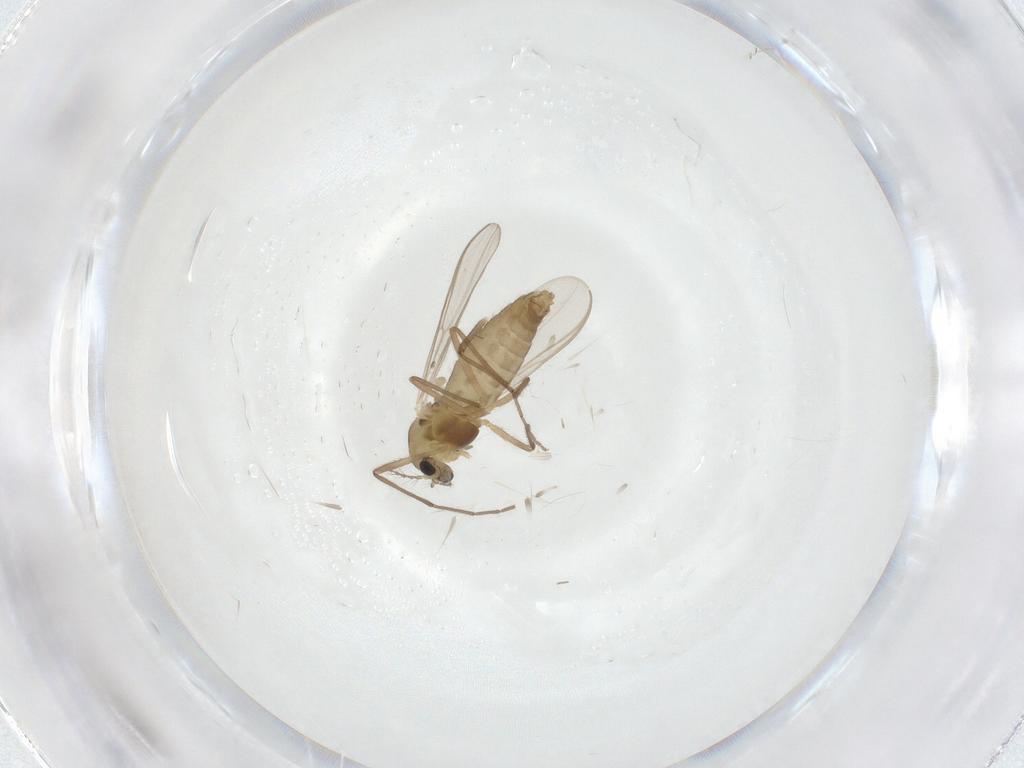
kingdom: Animalia
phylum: Arthropoda
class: Insecta
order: Diptera
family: Chironomidae
